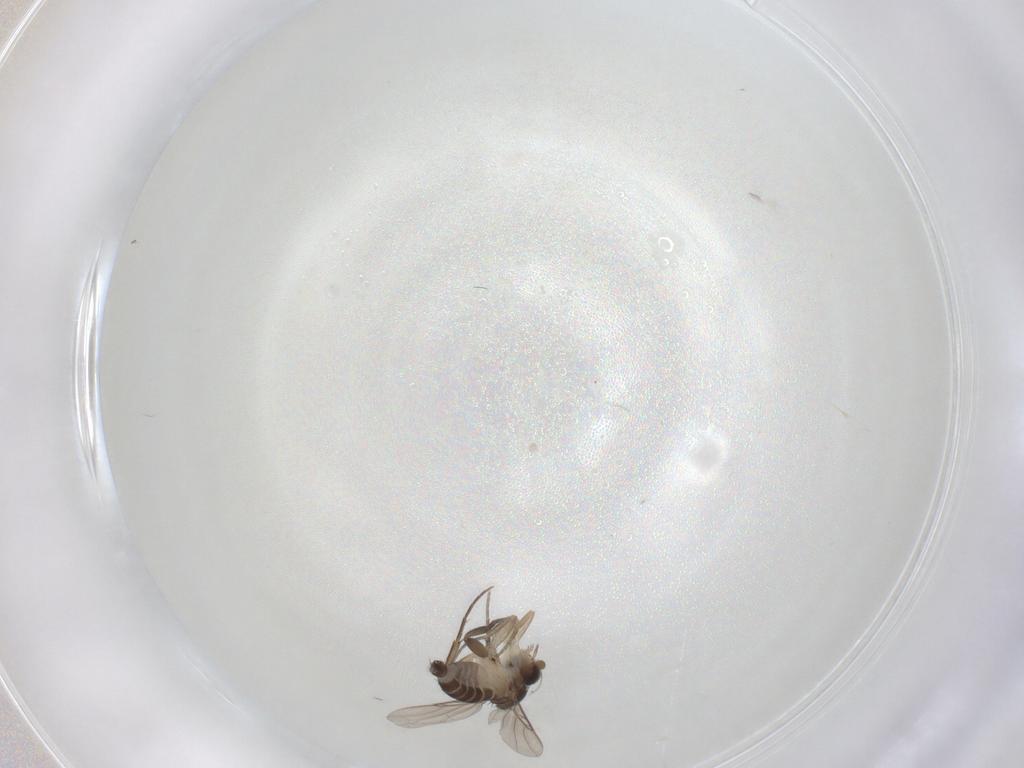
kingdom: Animalia
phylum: Arthropoda
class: Insecta
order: Diptera
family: Phoridae
